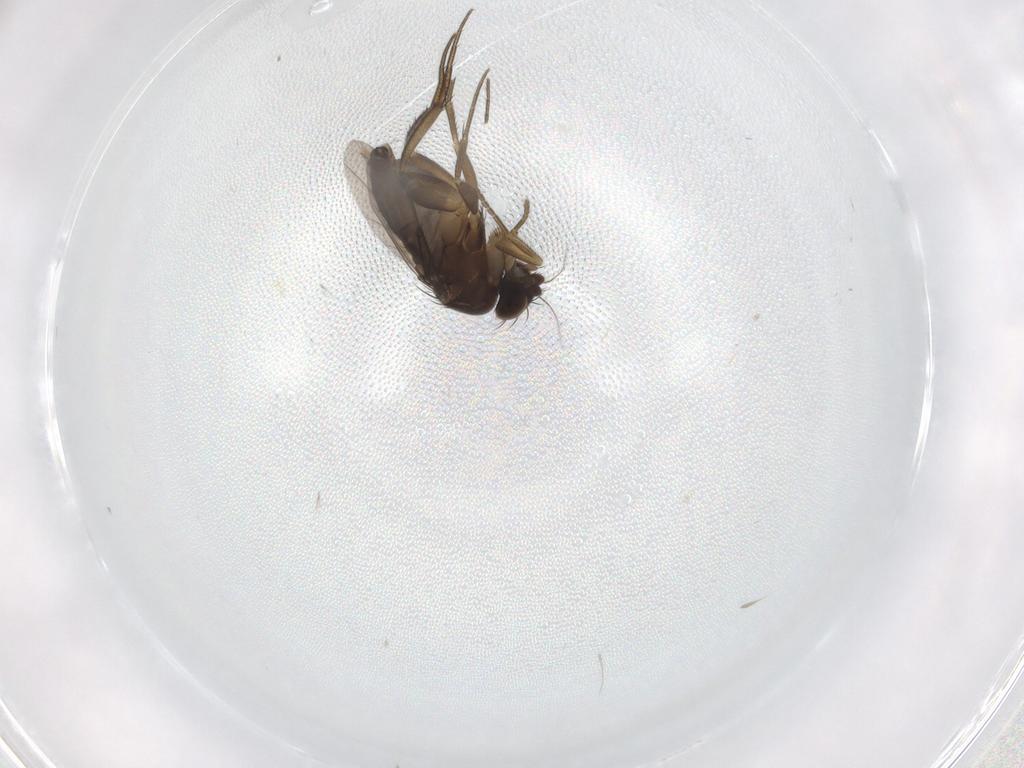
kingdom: Animalia
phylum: Arthropoda
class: Insecta
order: Diptera
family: Phoridae
